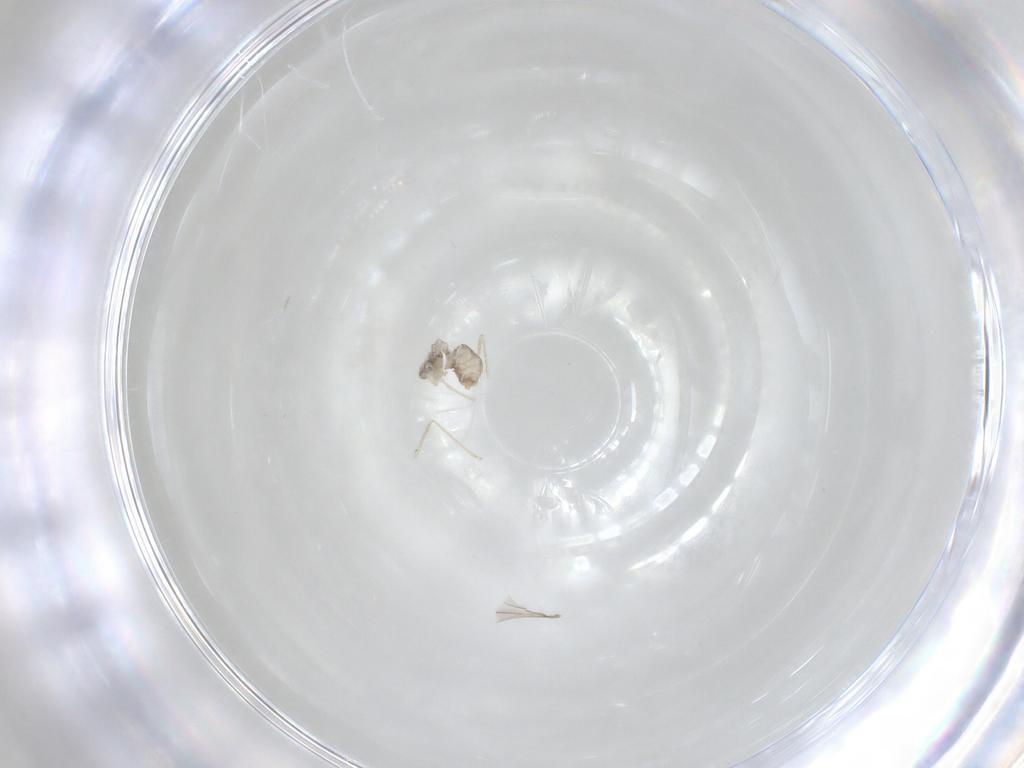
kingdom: Animalia
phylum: Arthropoda
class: Insecta
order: Diptera
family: Cecidomyiidae
